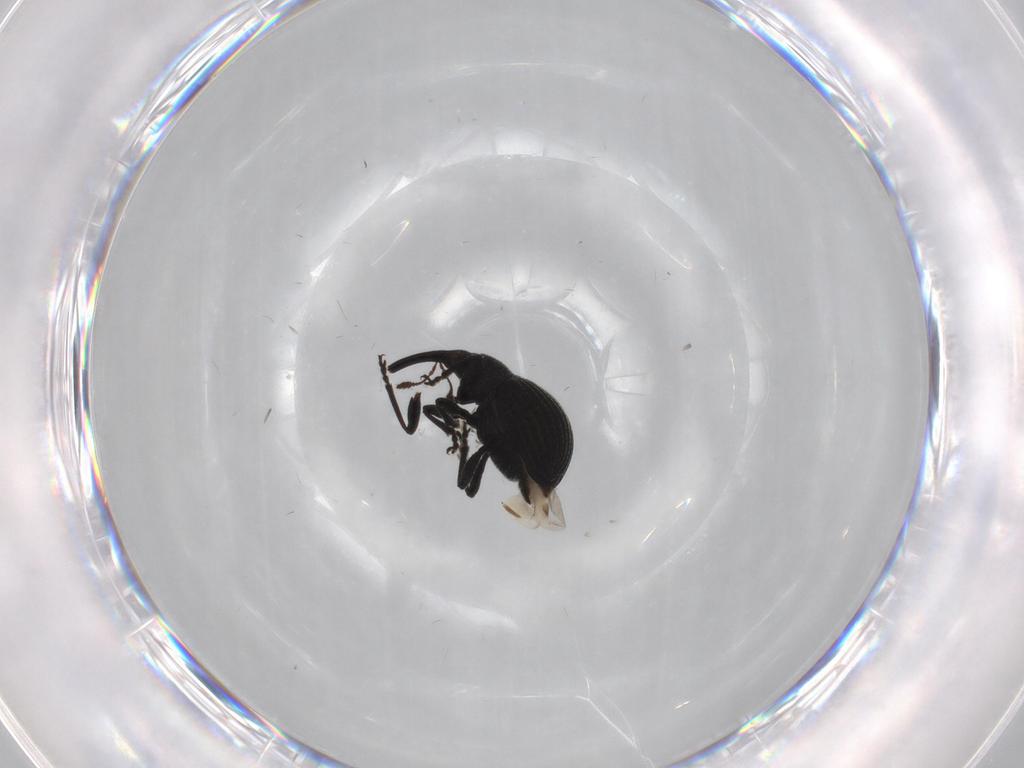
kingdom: Animalia
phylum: Arthropoda
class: Insecta
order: Coleoptera
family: Brentidae
